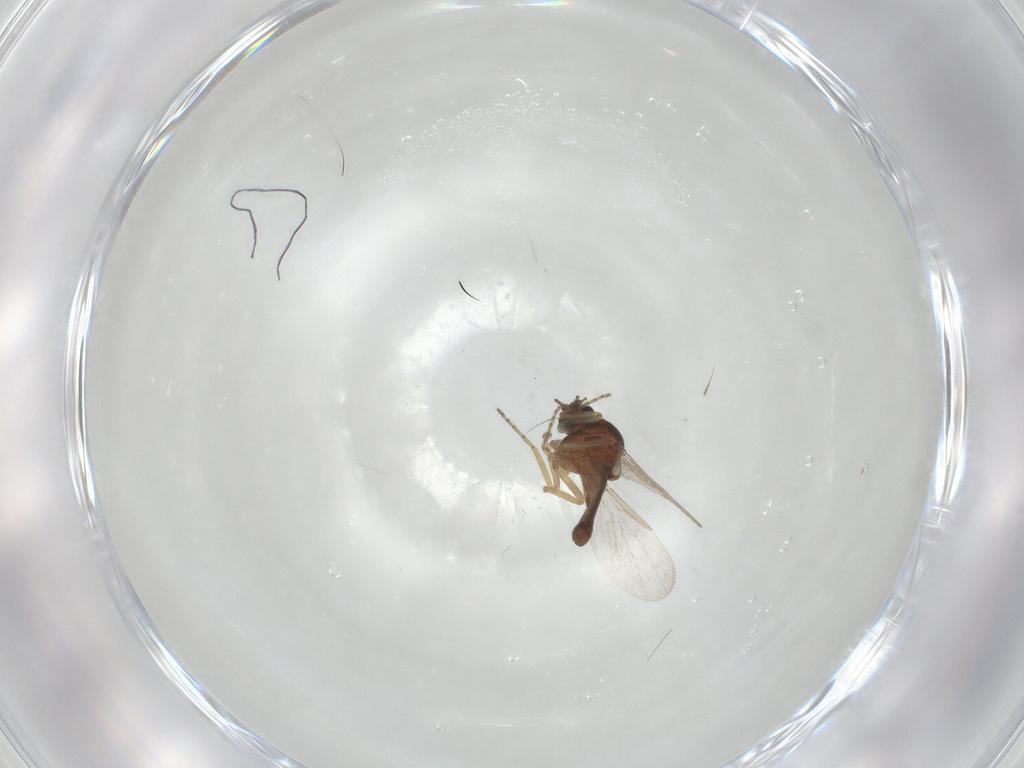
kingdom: Animalia
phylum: Arthropoda
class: Insecta
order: Diptera
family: Ceratopogonidae
